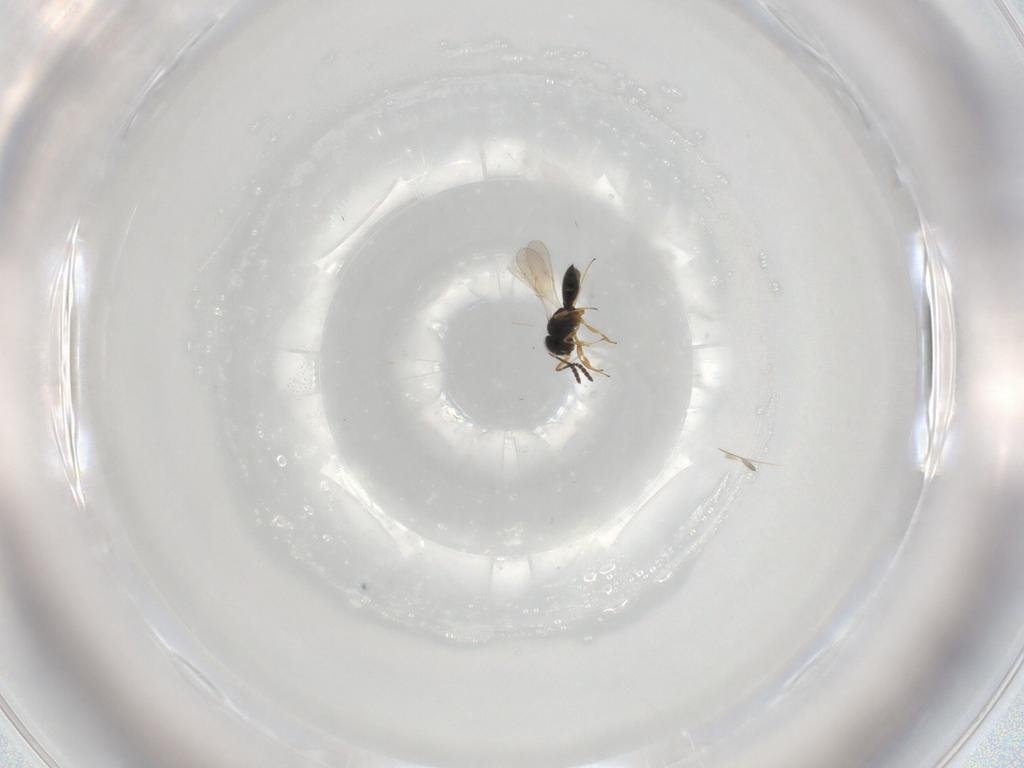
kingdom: Animalia
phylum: Arthropoda
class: Insecta
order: Hymenoptera
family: Scelionidae
